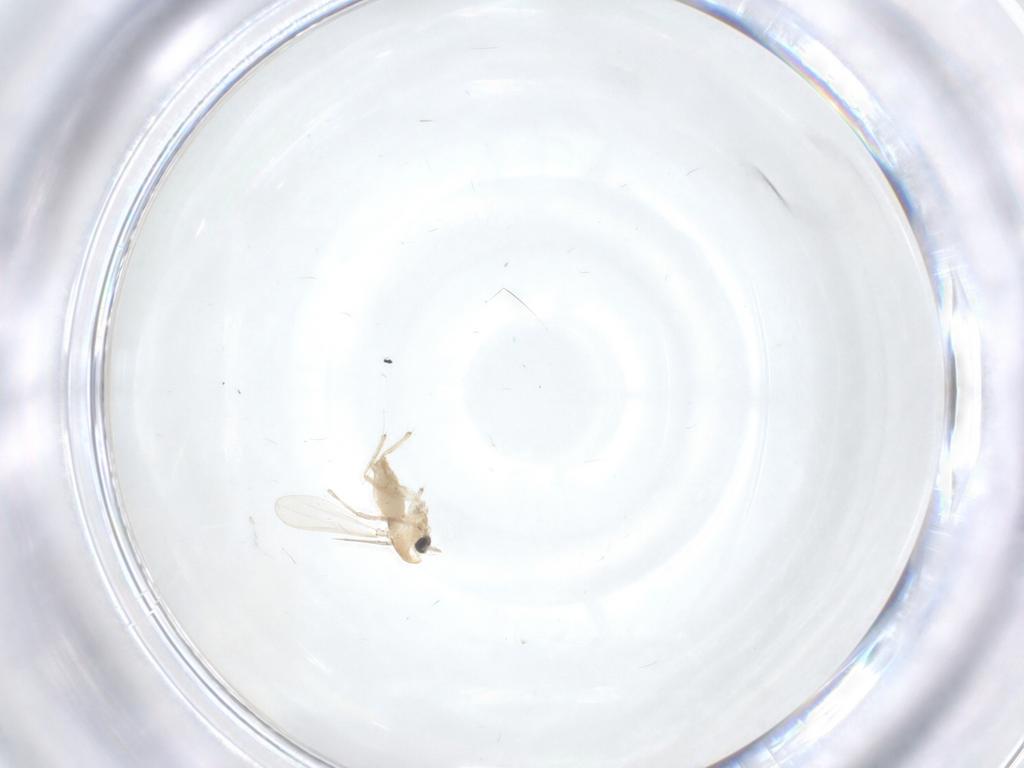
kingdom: Animalia
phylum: Arthropoda
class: Insecta
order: Diptera
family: Chironomidae
